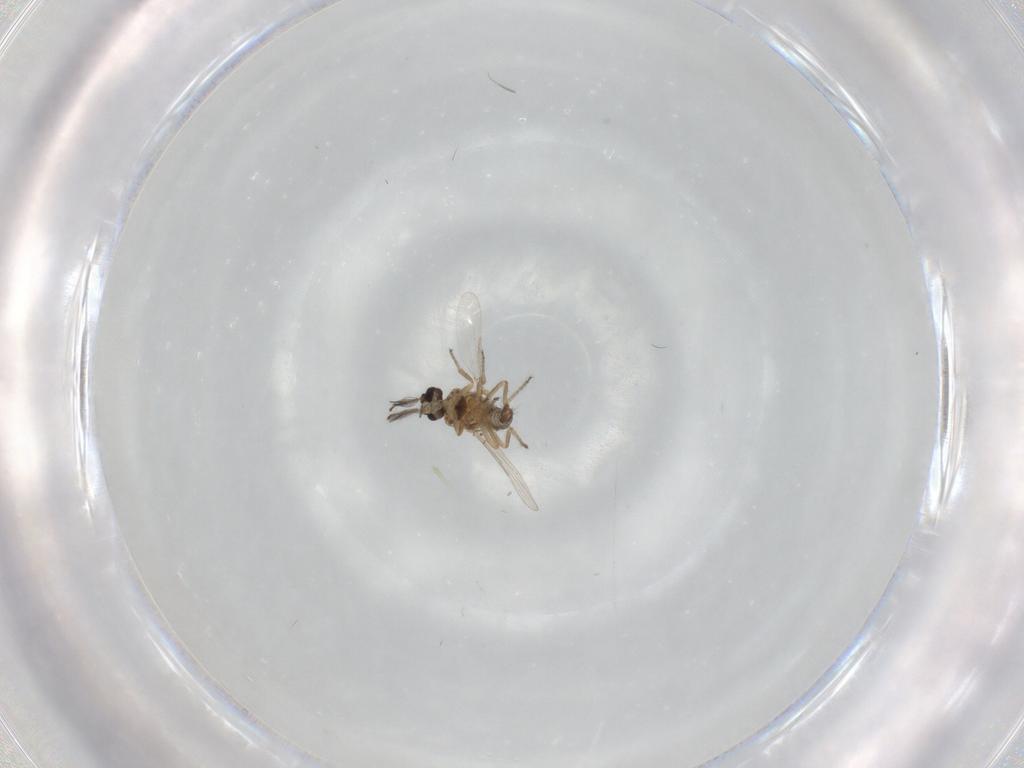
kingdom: Animalia
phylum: Arthropoda
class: Insecta
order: Diptera
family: Ceratopogonidae
